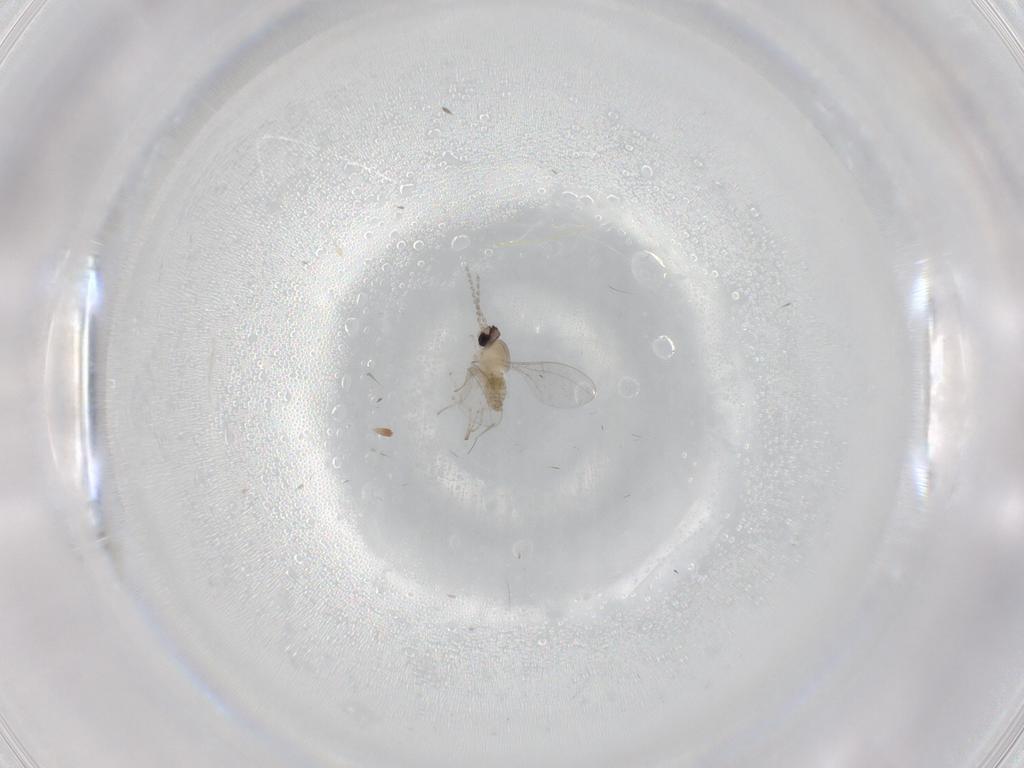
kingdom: Animalia
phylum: Arthropoda
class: Insecta
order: Diptera
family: Cecidomyiidae
